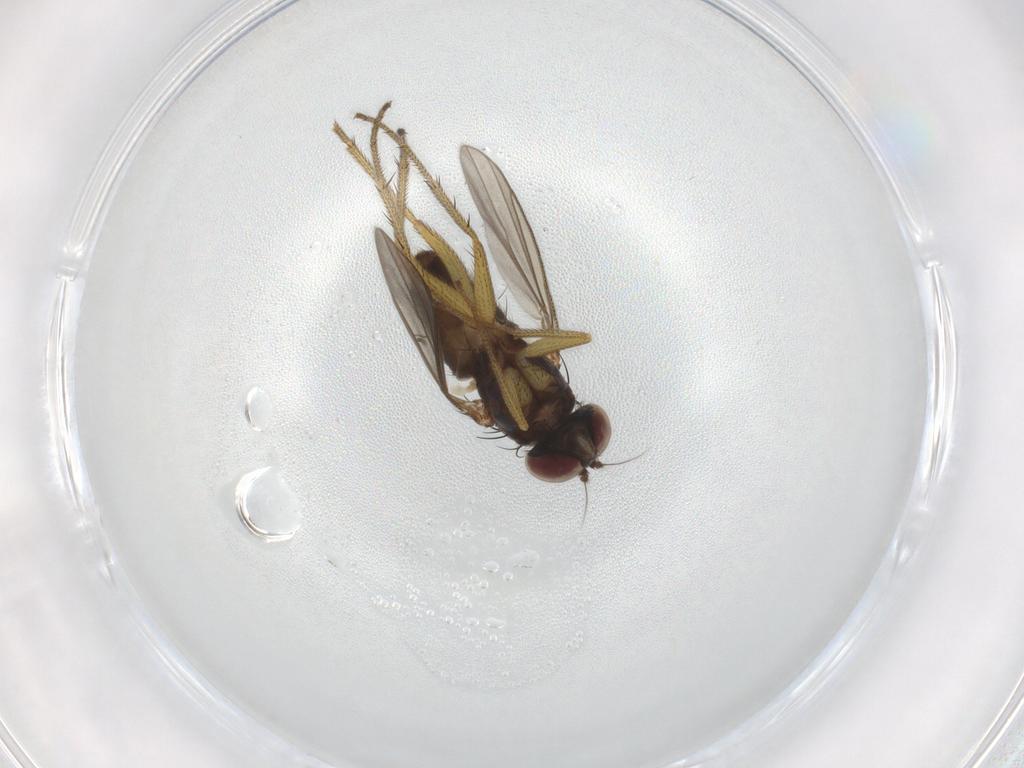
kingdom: Animalia
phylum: Arthropoda
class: Insecta
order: Diptera
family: Dolichopodidae
